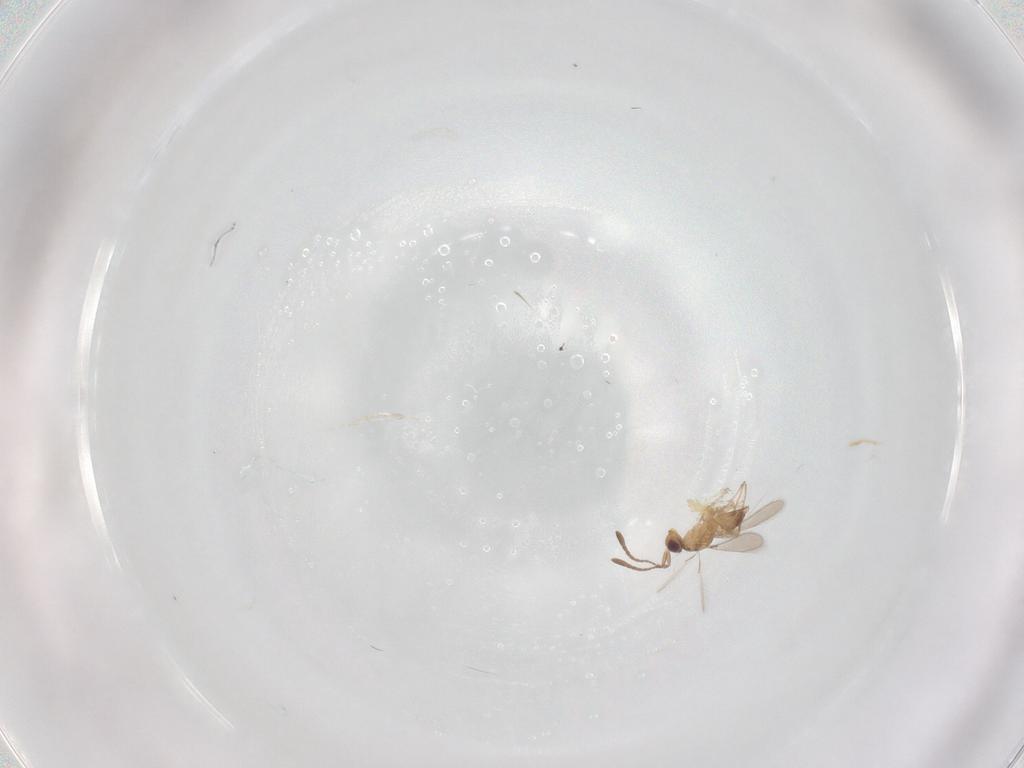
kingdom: Animalia
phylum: Arthropoda
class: Insecta
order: Hymenoptera
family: Mymaridae
